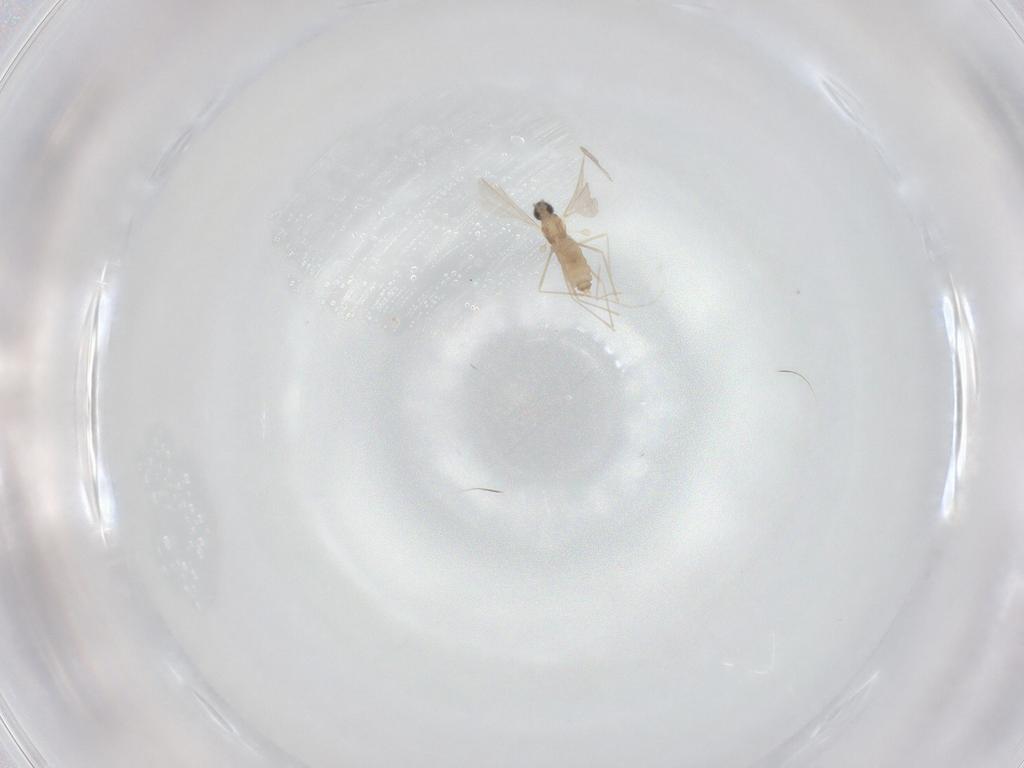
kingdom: Animalia
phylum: Arthropoda
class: Insecta
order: Diptera
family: Cecidomyiidae
